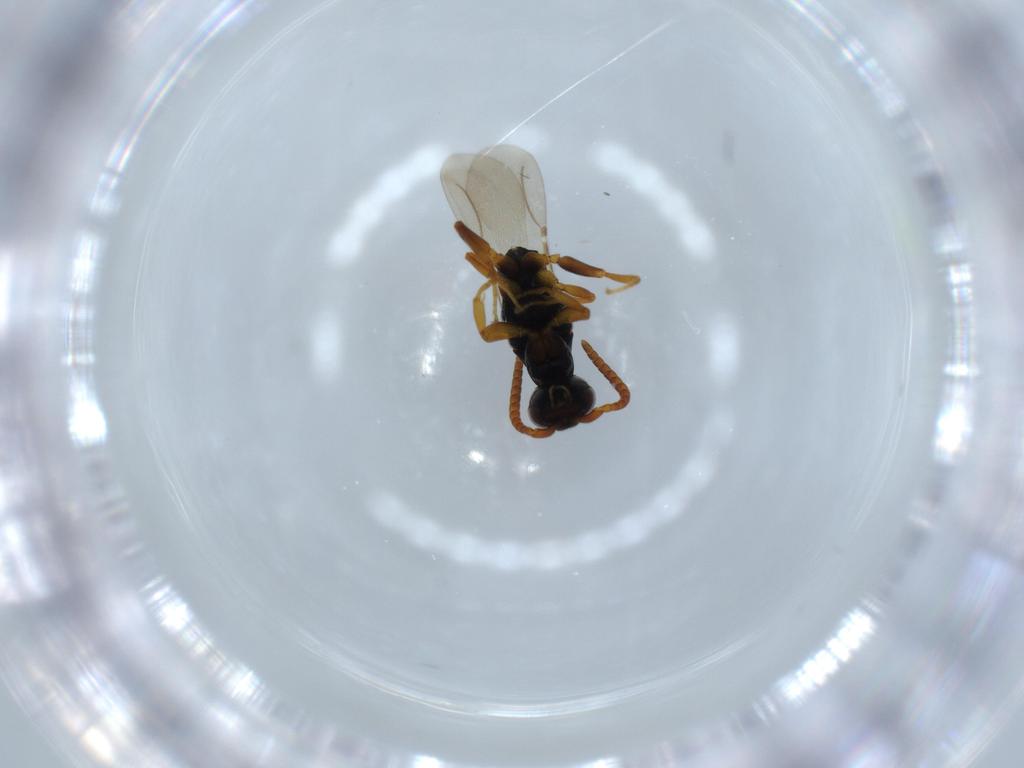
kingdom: Animalia
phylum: Arthropoda
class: Insecta
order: Hymenoptera
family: Bethylidae
